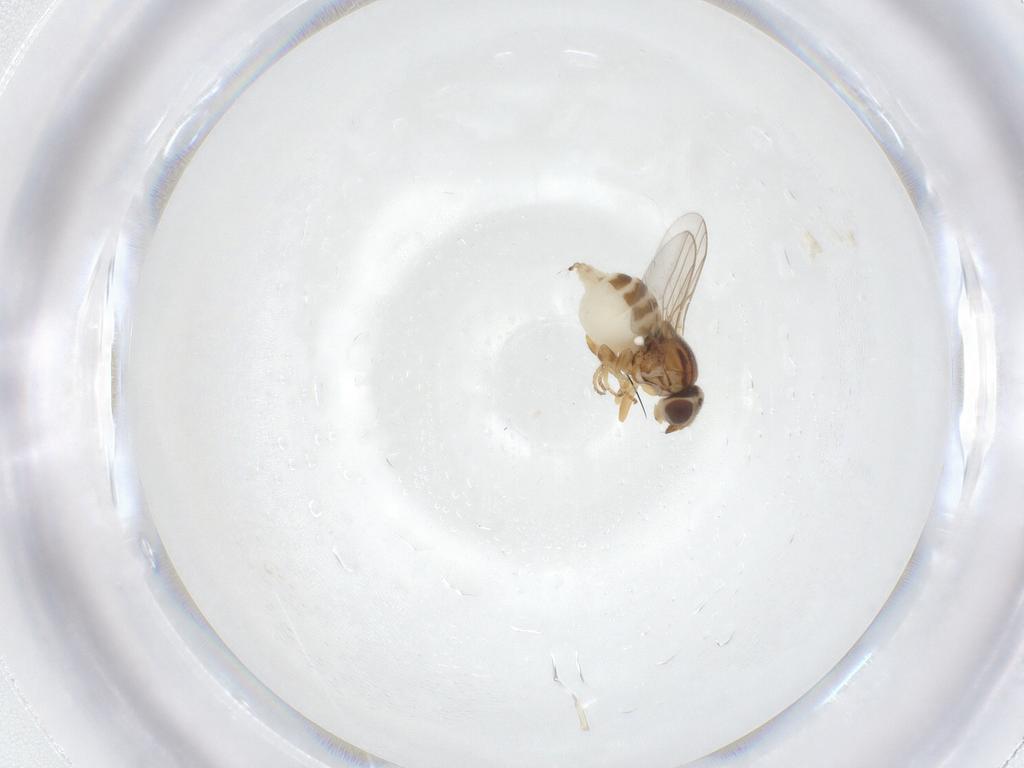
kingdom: Animalia
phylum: Arthropoda
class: Insecta
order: Diptera
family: Chloropidae
